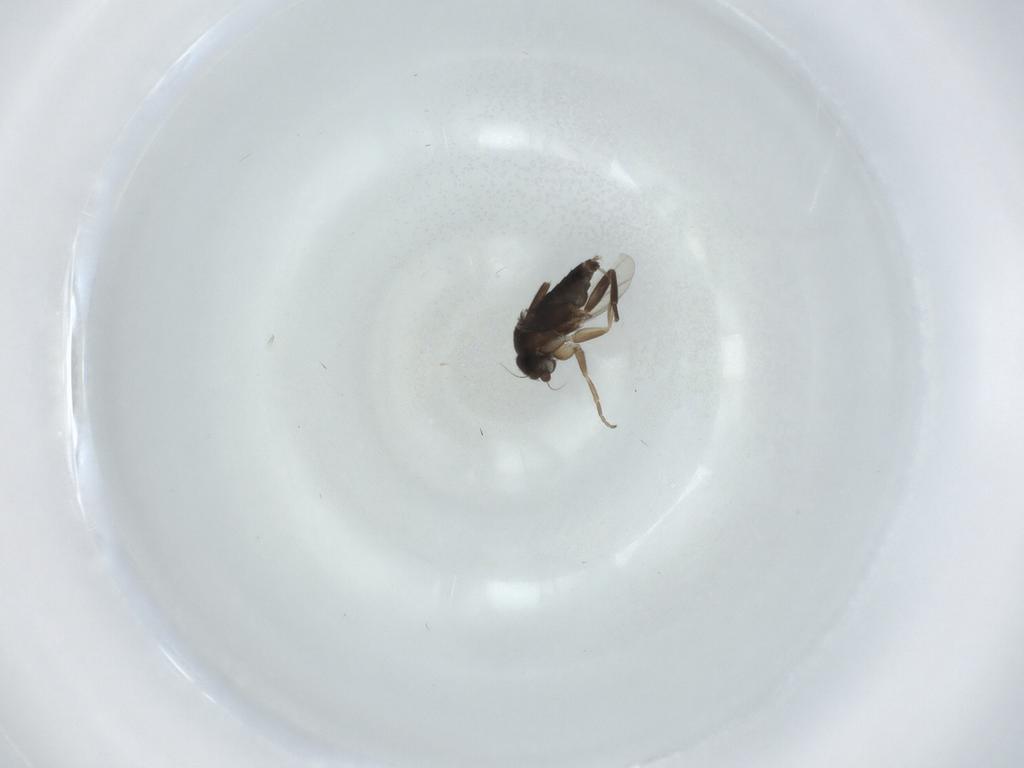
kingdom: Animalia
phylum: Arthropoda
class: Insecta
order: Diptera
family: Phoridae
